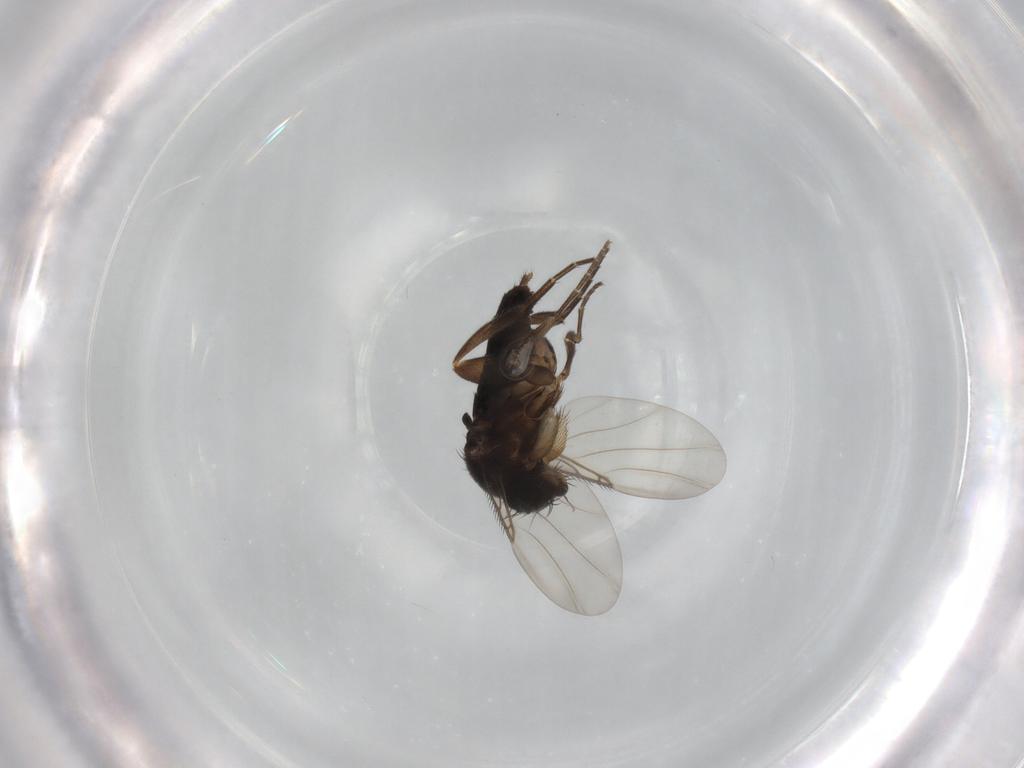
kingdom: Animalia
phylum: Arthropoda
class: Insecta
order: Diptera
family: Phoridae
